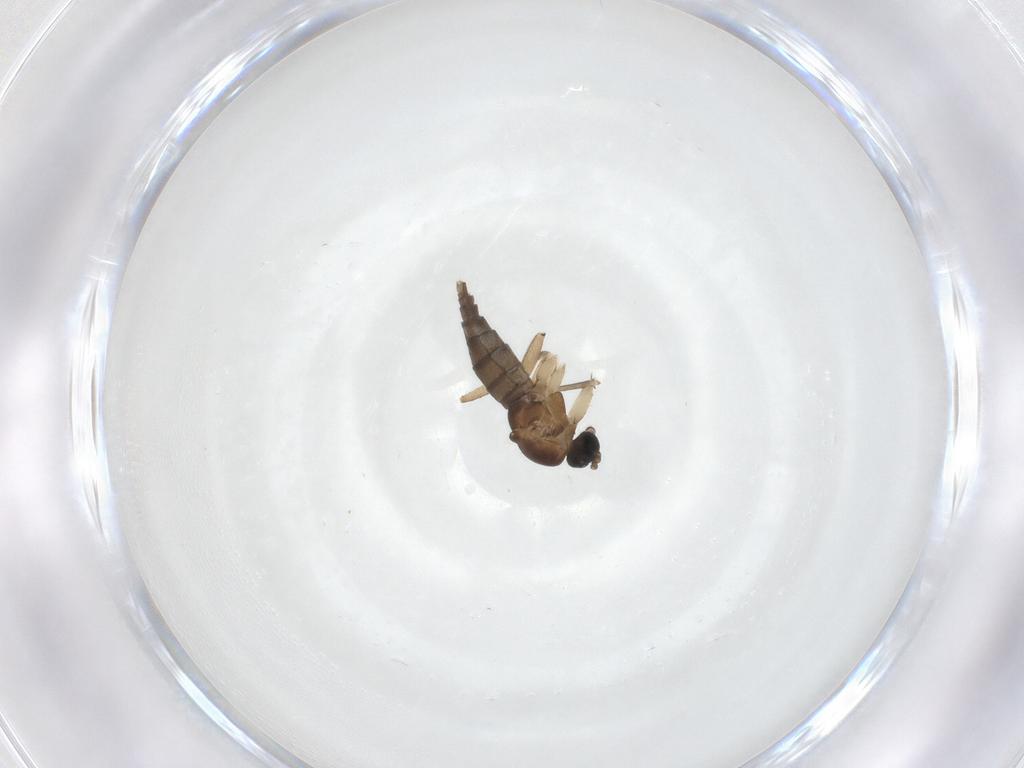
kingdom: Animalia
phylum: Arthropoda
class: Insecta
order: Diptera
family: Sciaridae
